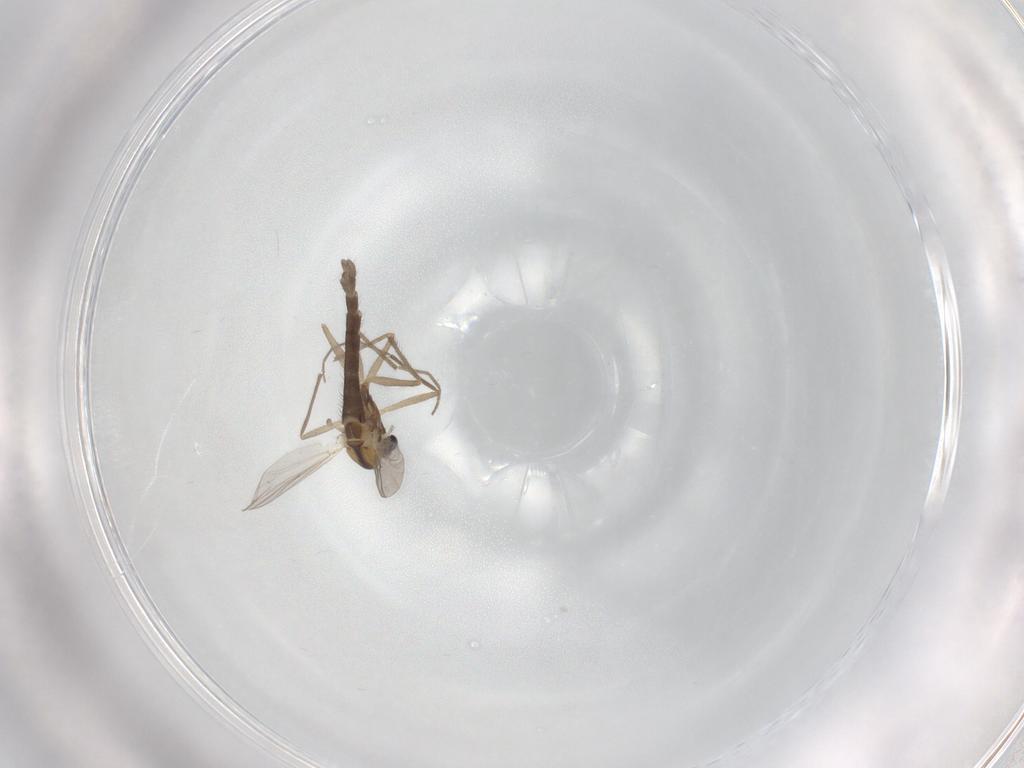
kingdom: Animalia
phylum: Arthropoda
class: Insecta
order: Diptera
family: Chironomidae
